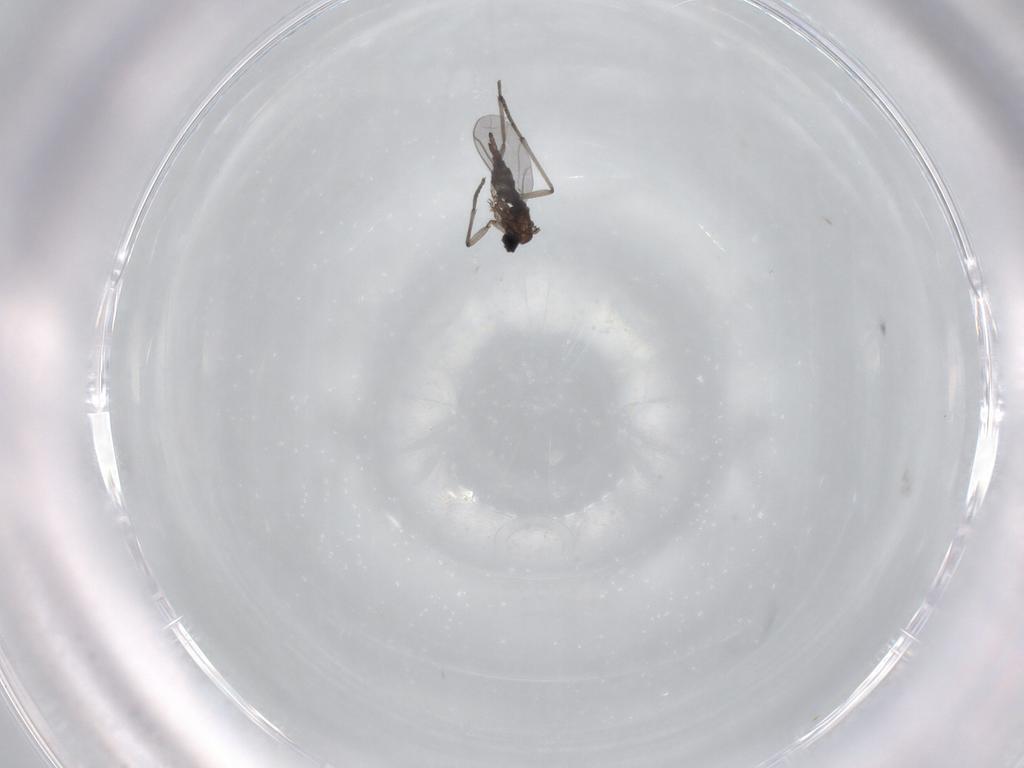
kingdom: Animalia
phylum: Arthropoda
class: Insecta
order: Diptera
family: Sciaridae
